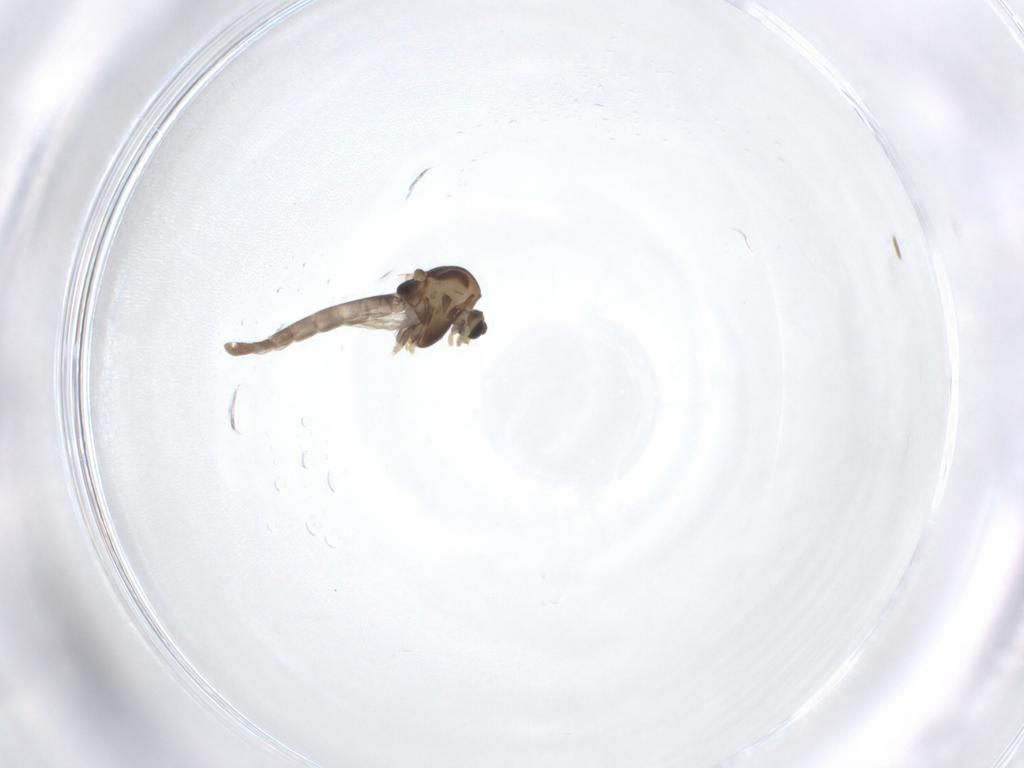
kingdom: Animalia
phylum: Arthropoda
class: Insecta
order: Diptera
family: Chironomidae
